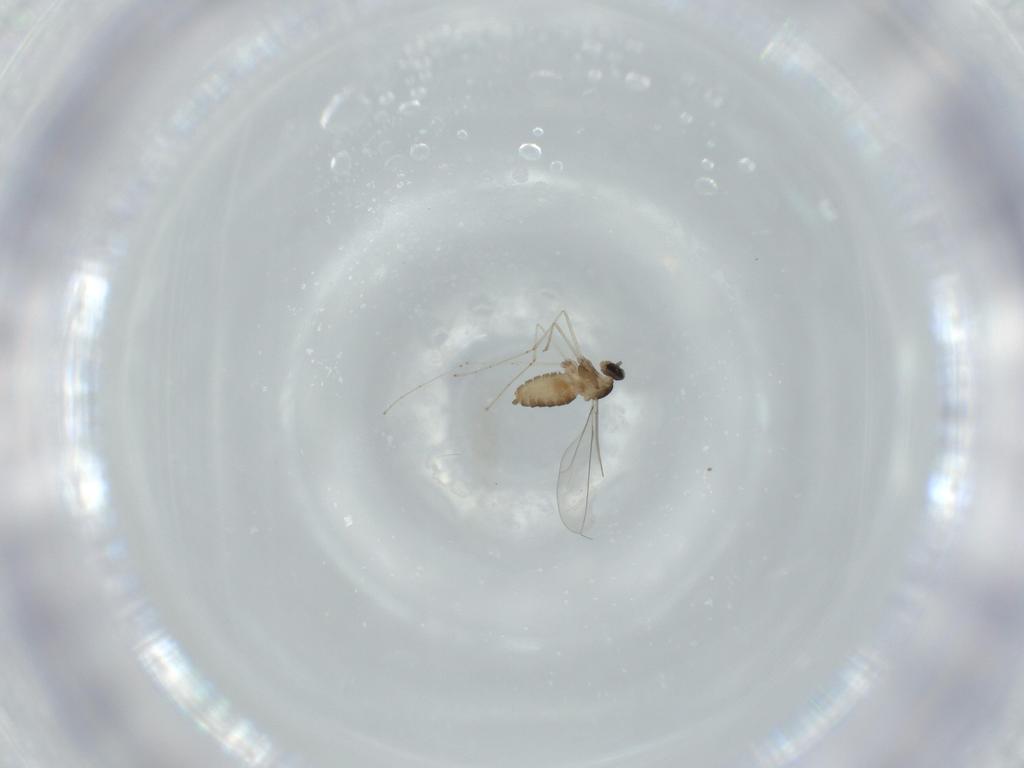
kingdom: Animalia
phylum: Arthropoda
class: Insecta
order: Diptera
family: Cecidomyiidae
